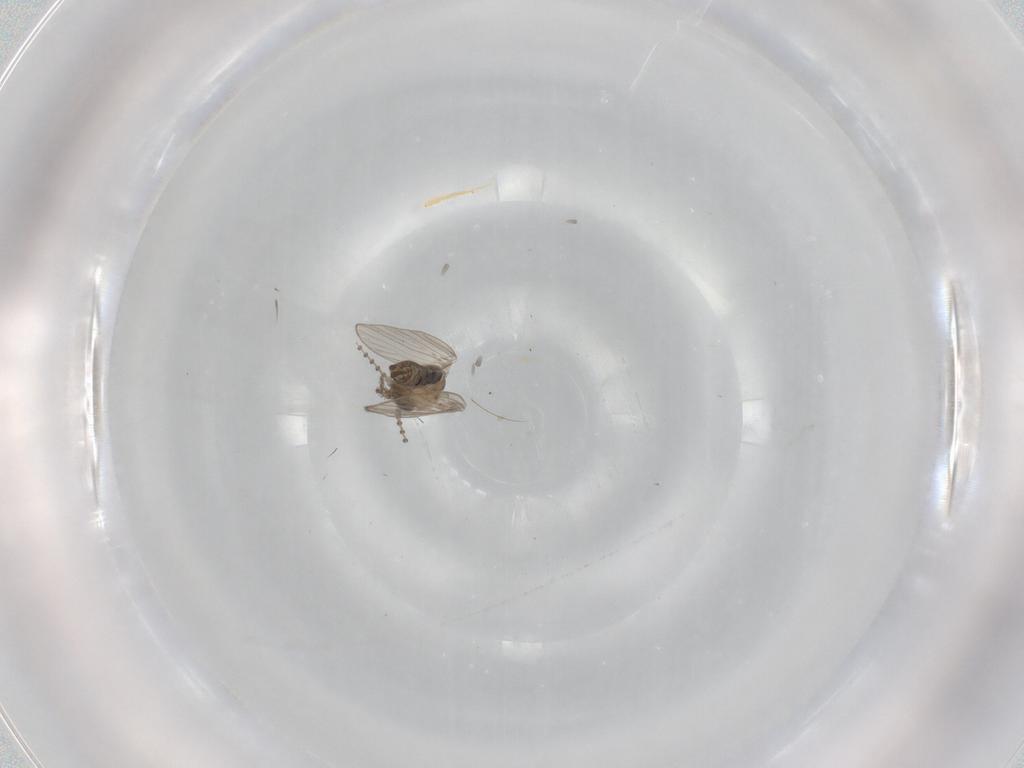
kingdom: Animalia
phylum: Arthropoda
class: Insecta
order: Diptera
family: Psychodidae
